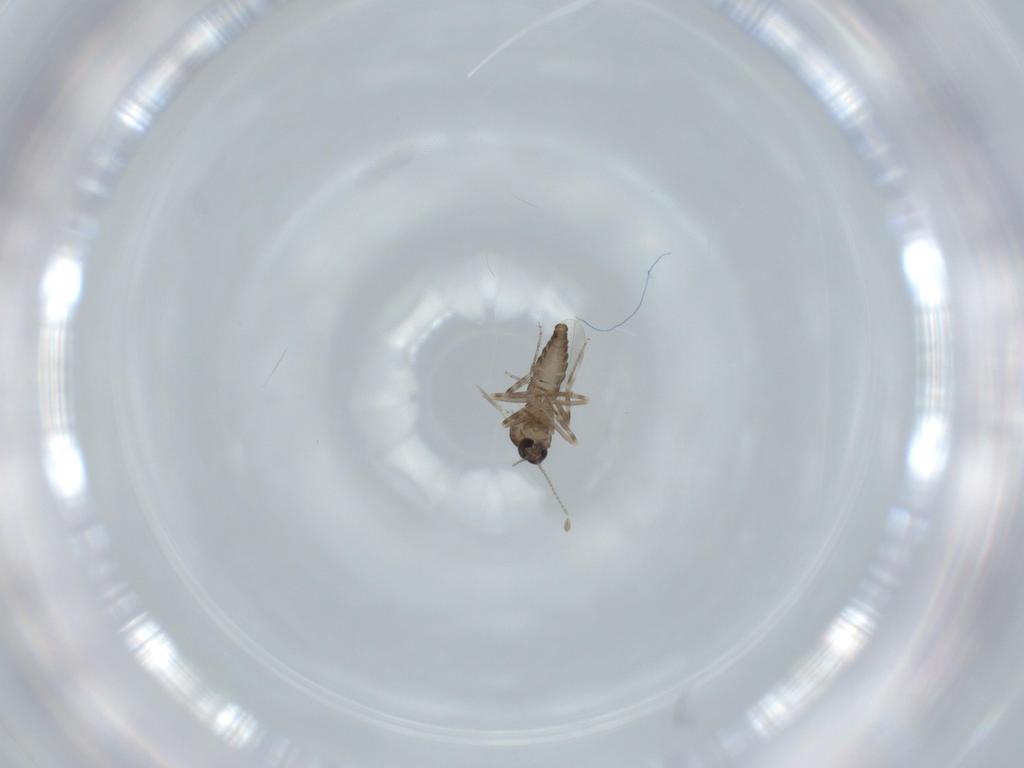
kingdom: Animalia
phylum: Arthropoda
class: Insecta
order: Diptera
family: Ceratopogonidae
